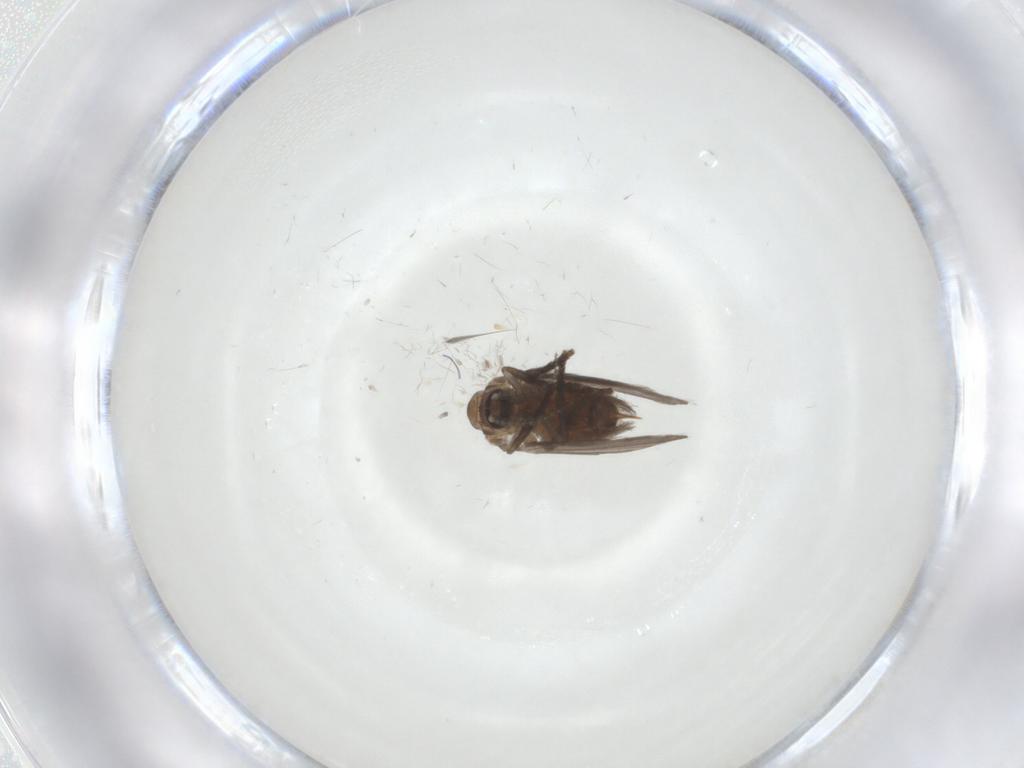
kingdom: Animalia
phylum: Arthropoda
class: Insecta
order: Diptera
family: Psychodidae
